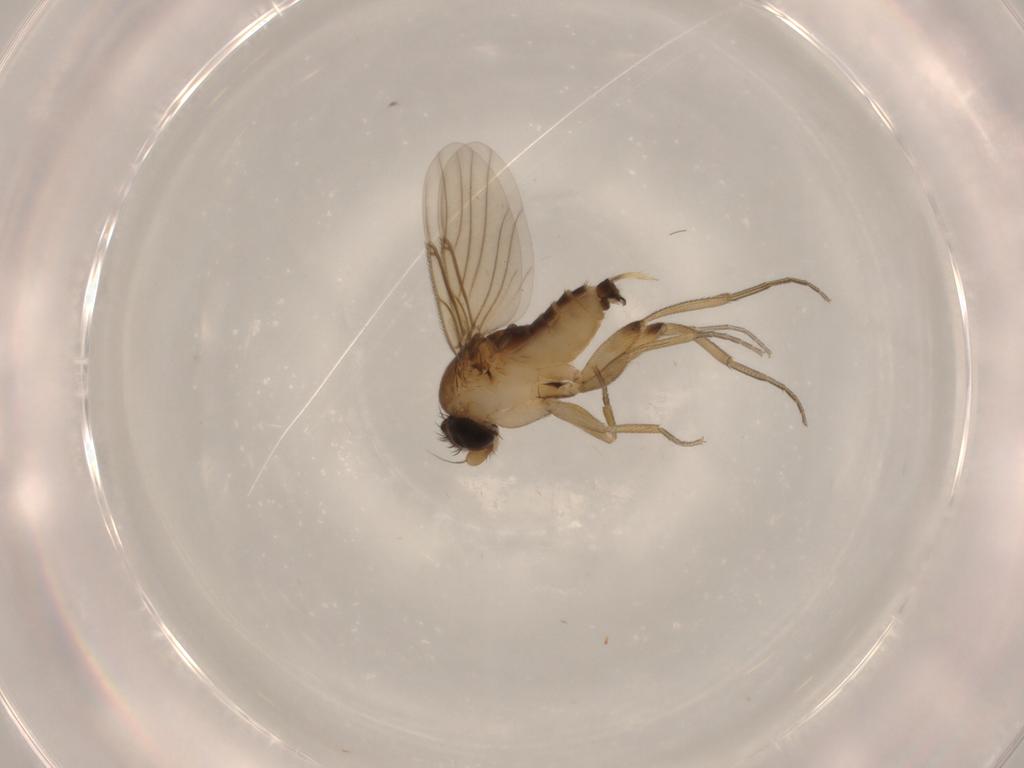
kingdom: Animalia
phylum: Arthropoda
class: Insecta
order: Diptera
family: Phoridae
